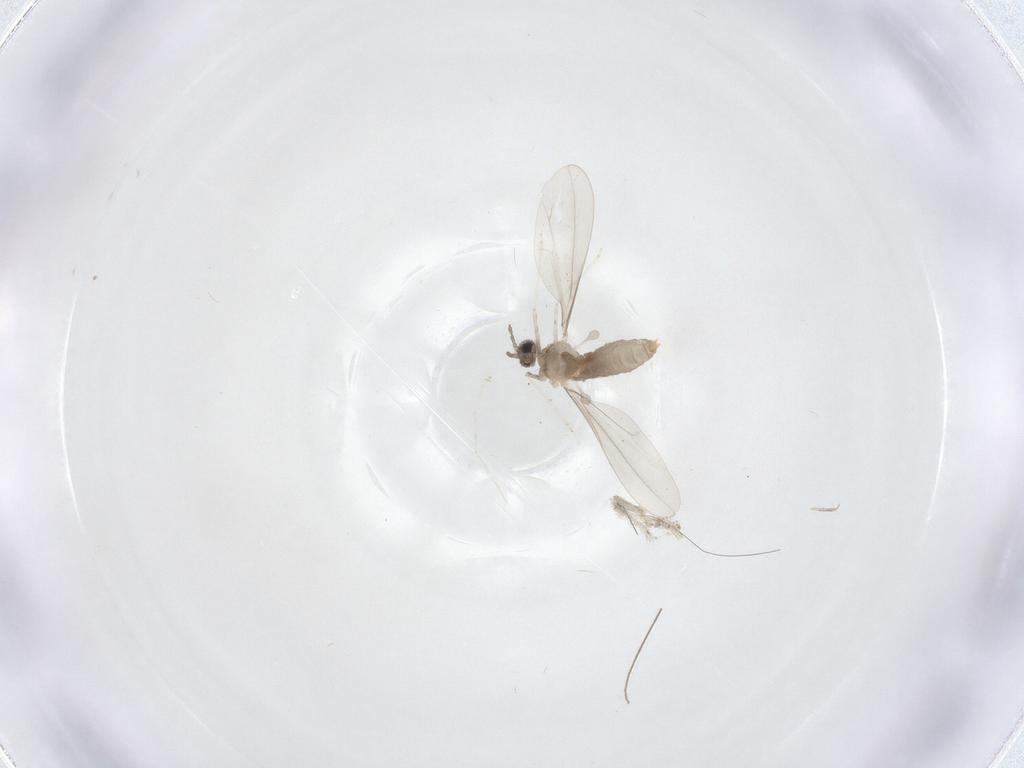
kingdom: Animalia
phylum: Arthropoda
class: Insecta
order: Diptera
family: Cecidomyiidae
